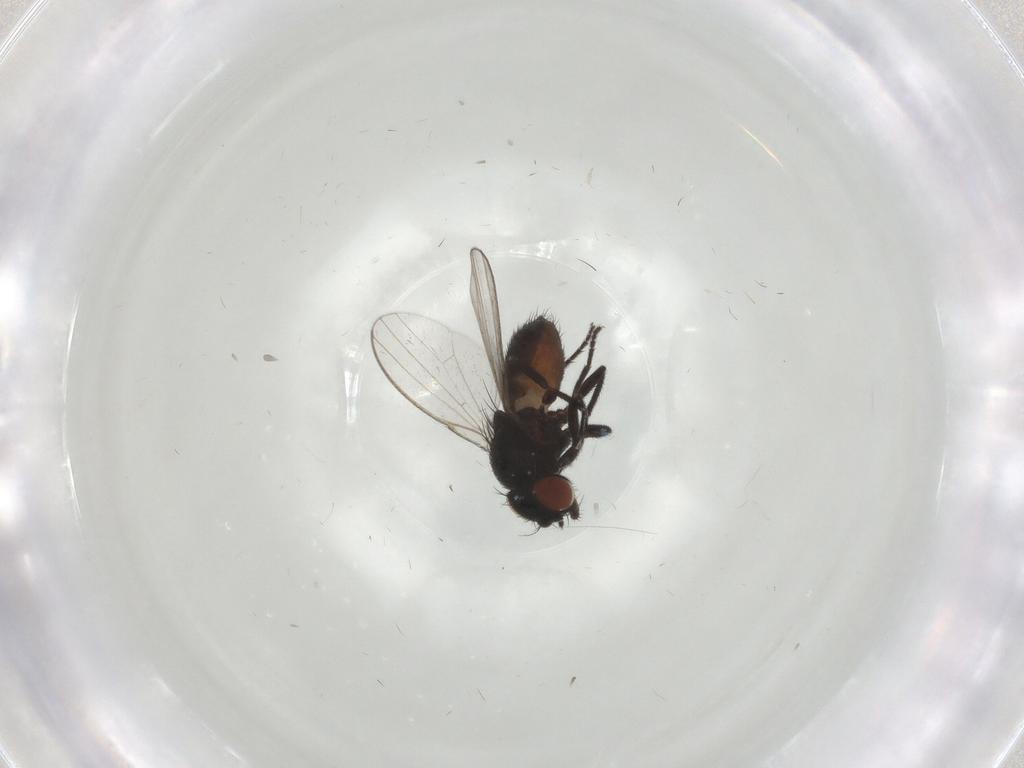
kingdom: Animalia
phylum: Arthropoda
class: Insecta
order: Diptera
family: Milichiidae
